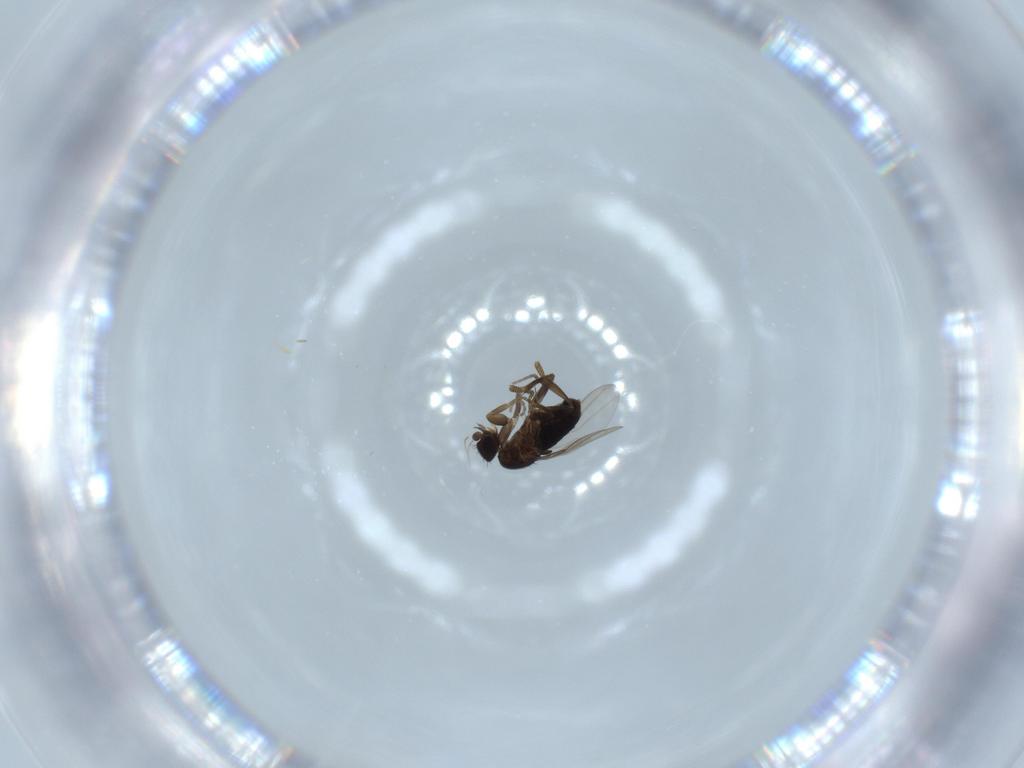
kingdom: Animalia
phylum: Arthropoda
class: Insecta
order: Diptera
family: Phoridae
